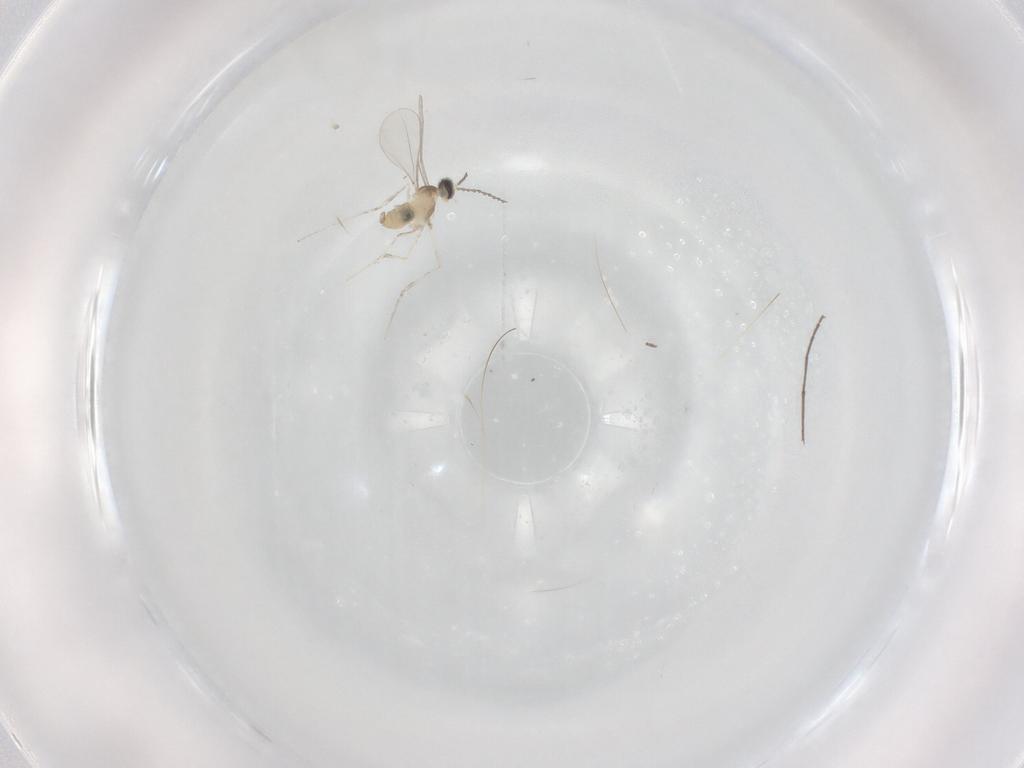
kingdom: Animalia
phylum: Arthropoda
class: Insecta
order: Diptera
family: Cecidomyiidae
